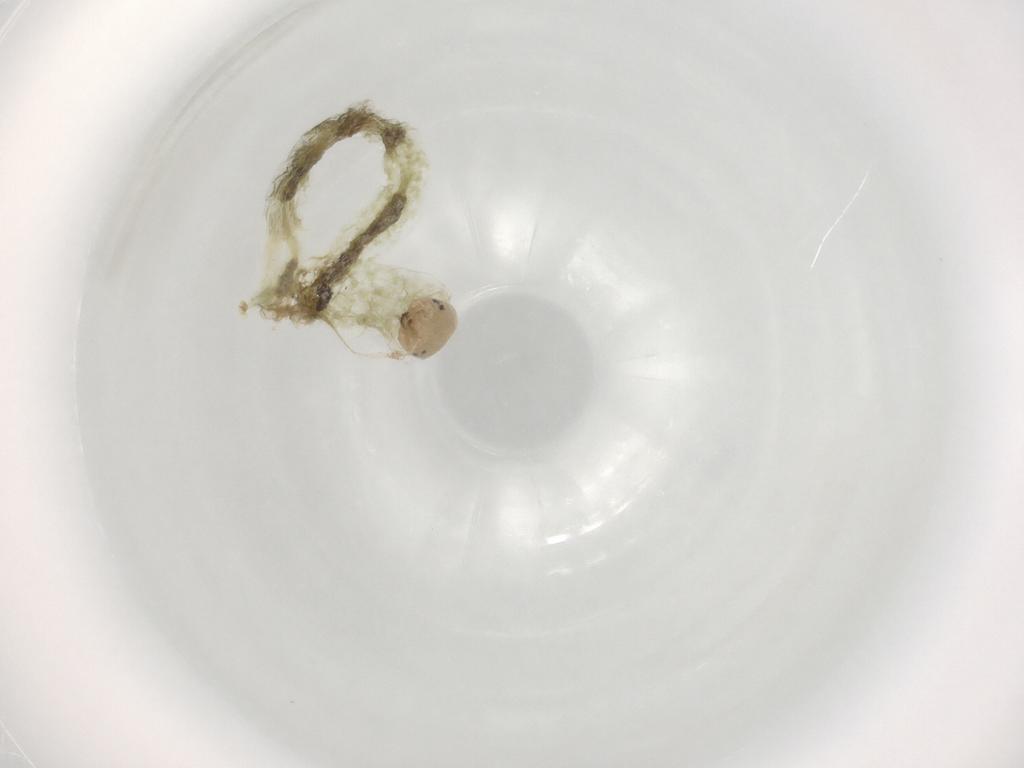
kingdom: Animalia
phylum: Arthropoda
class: Insecta
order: Diptera
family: Chironomidae
